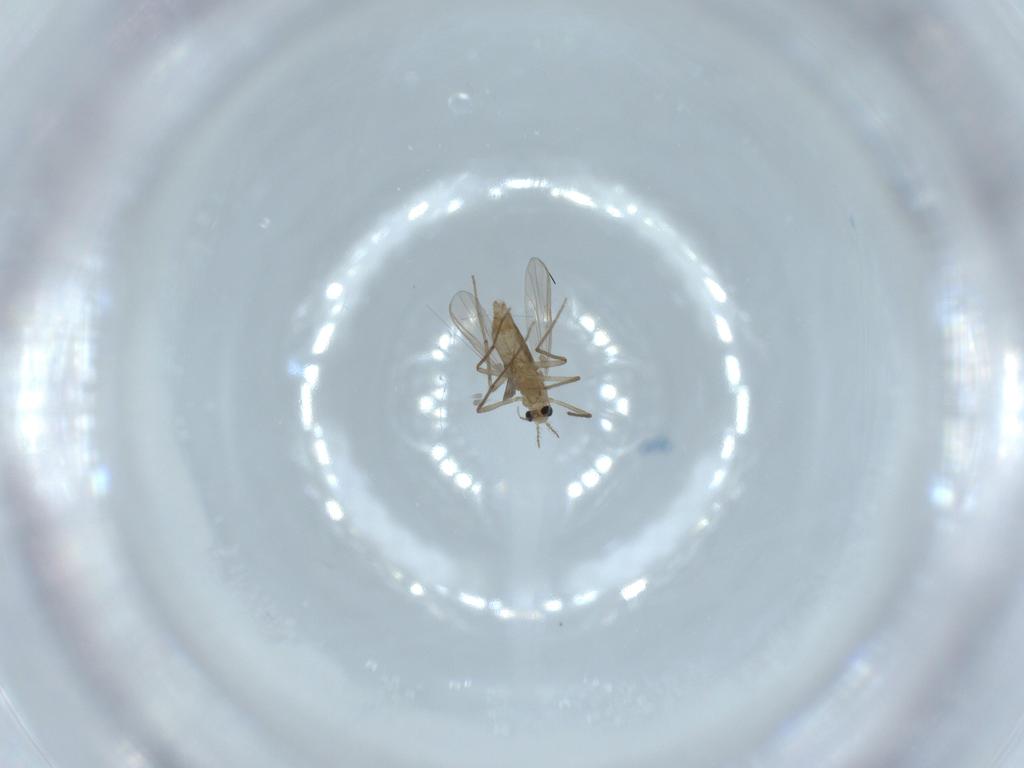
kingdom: Animalia
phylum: Arthropoda
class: Insecta
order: Diptera
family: Chironomidae
